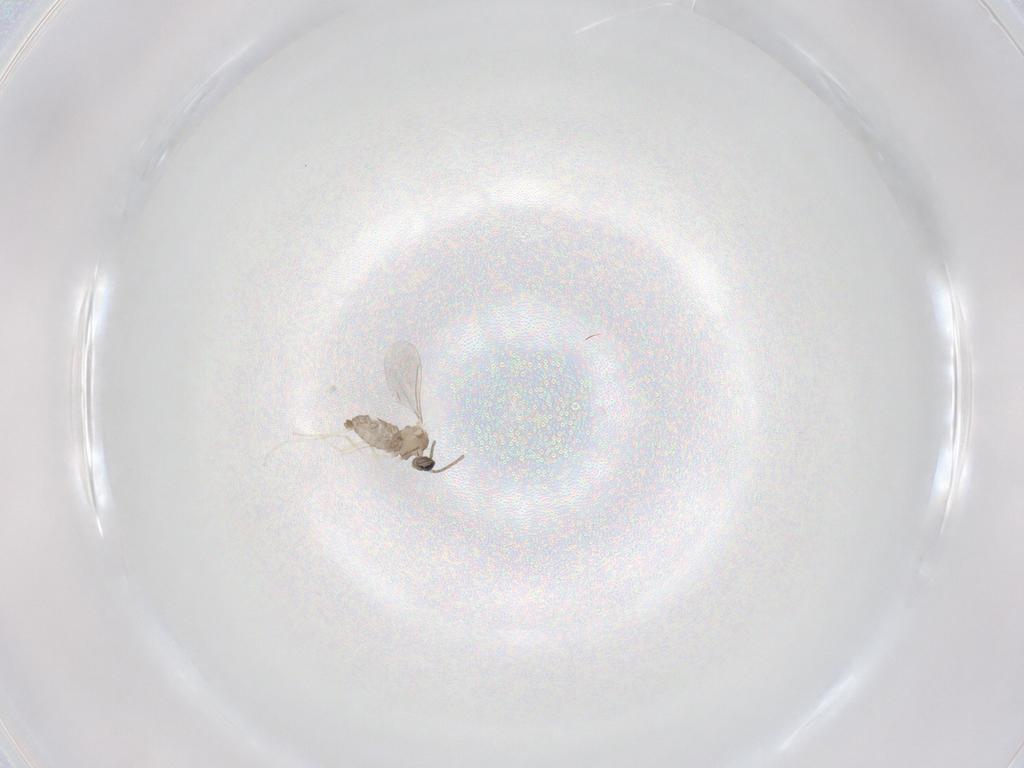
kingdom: Animalia
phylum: Arthropoda
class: Insecta
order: Diptera
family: Cecidomyiidae
